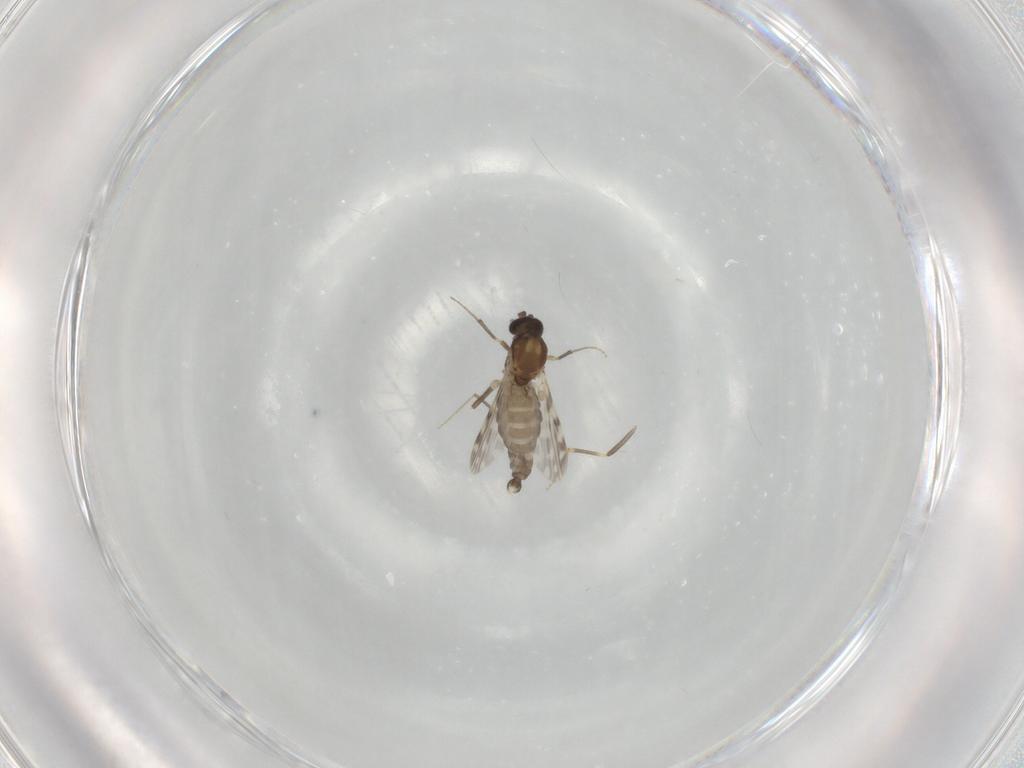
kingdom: Animalia
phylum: Arthropoda
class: Insecta
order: Diptera
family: Ceratopogonidae
